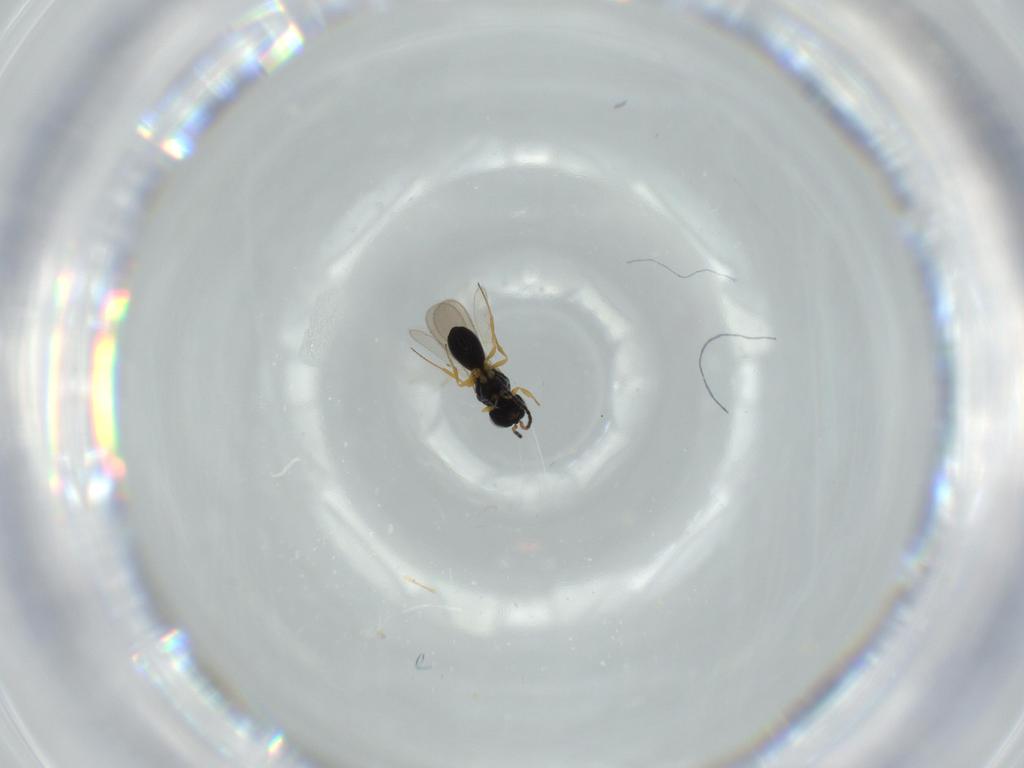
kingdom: Animalia
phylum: Arthropoda
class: Insecta
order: Hymenoptera
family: Scelionidae
